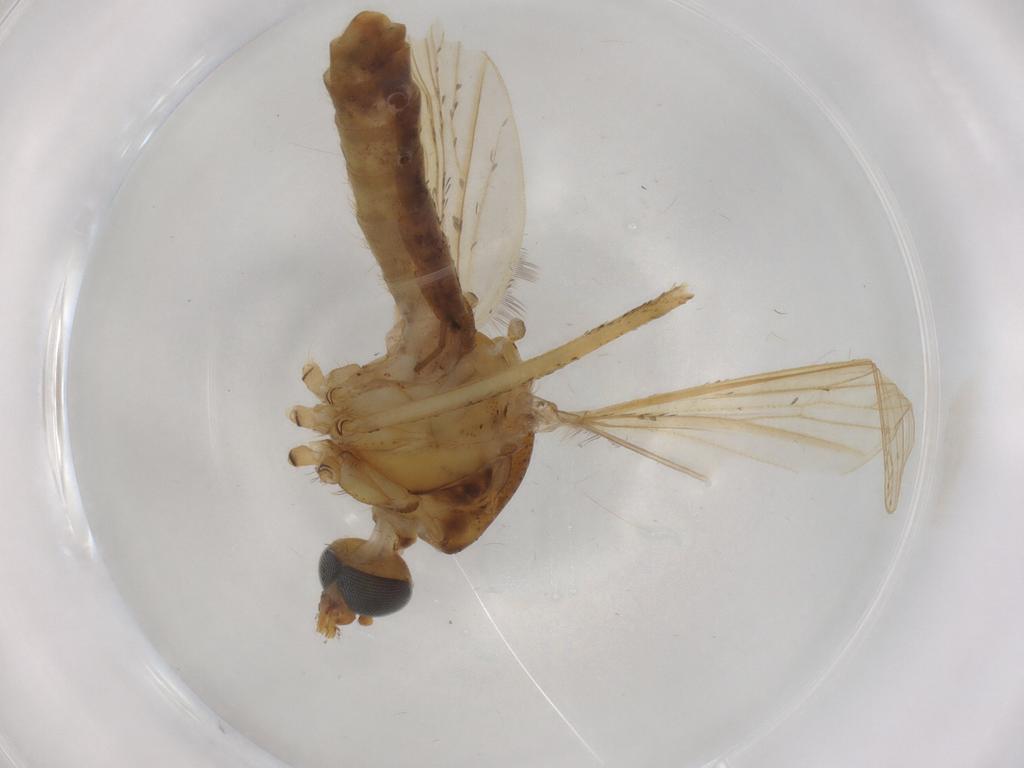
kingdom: Animalia
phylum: Arthropoda
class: Insecta
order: Diptera
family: Cecidomyiidae
